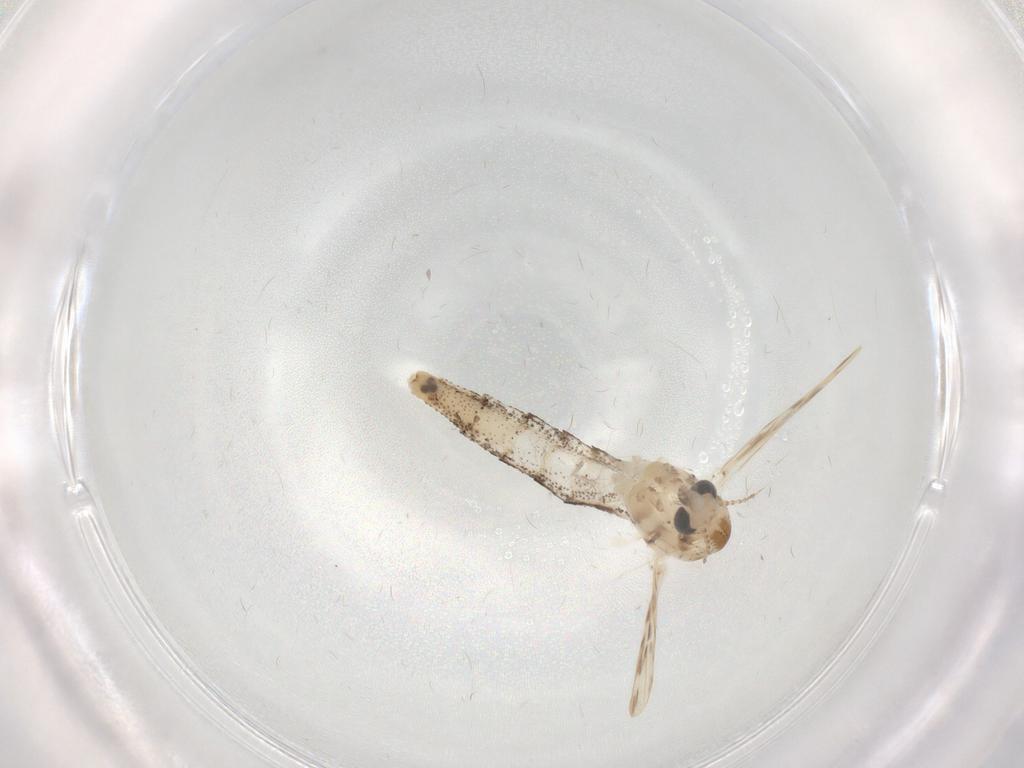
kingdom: Animalia
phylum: Arthropoda
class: Insecta
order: Diptera
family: Chaoboridae
